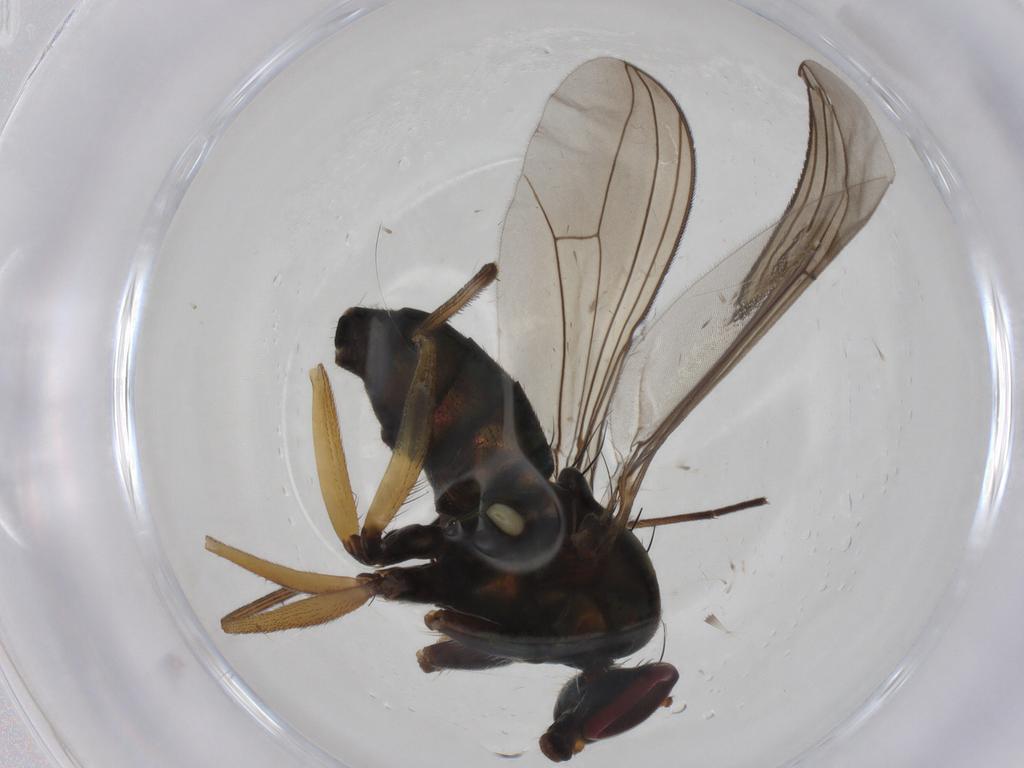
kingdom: Animalia
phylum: Arthropoda
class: Insecta
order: Diptera
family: Dolichopodidae
